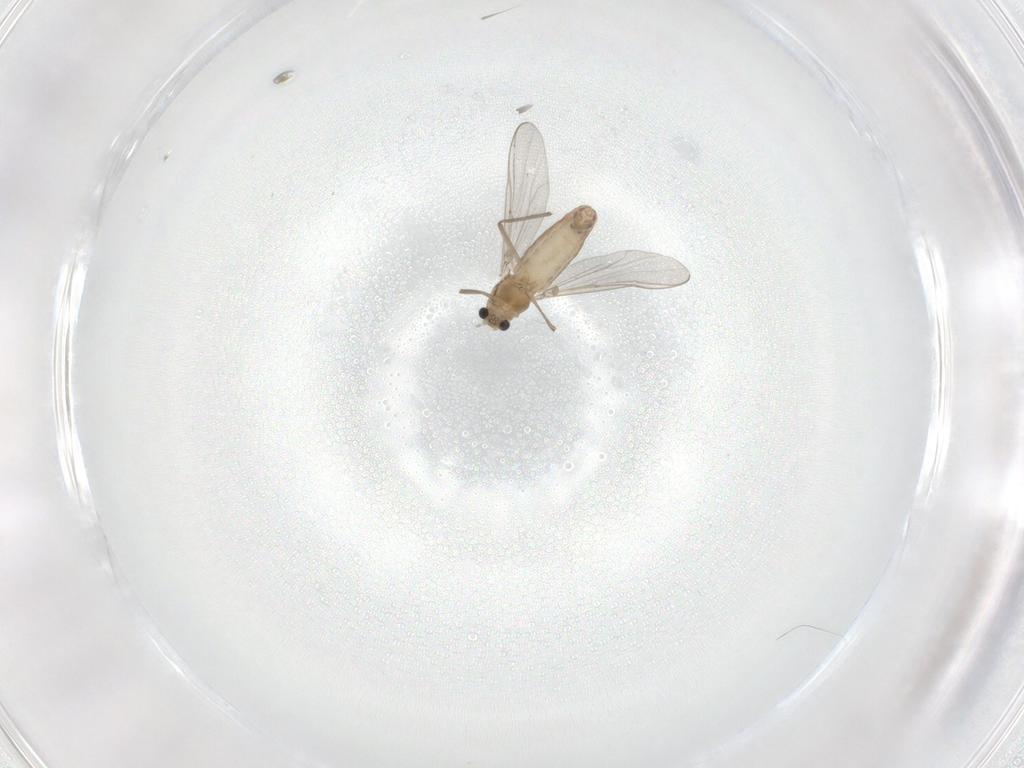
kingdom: Animalia
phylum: Arthropoda
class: Insecta
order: Diptera
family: Chironomidae
